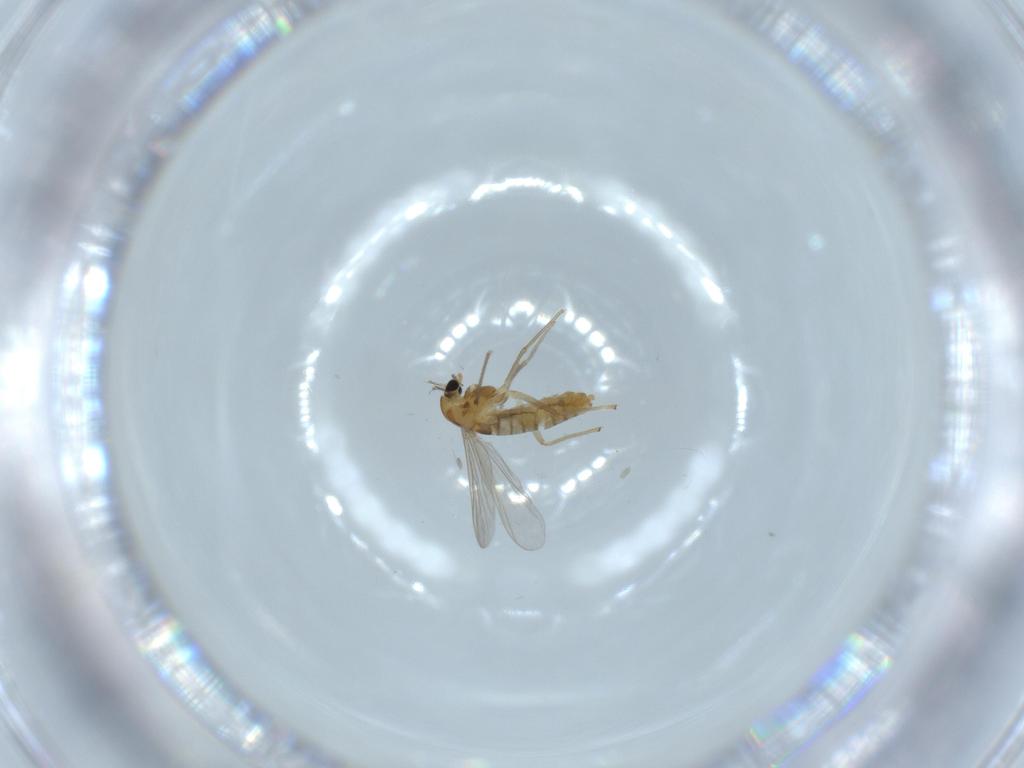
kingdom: Animalia
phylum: Arthropoda
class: Insecta
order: Diptera
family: Chironomidae
